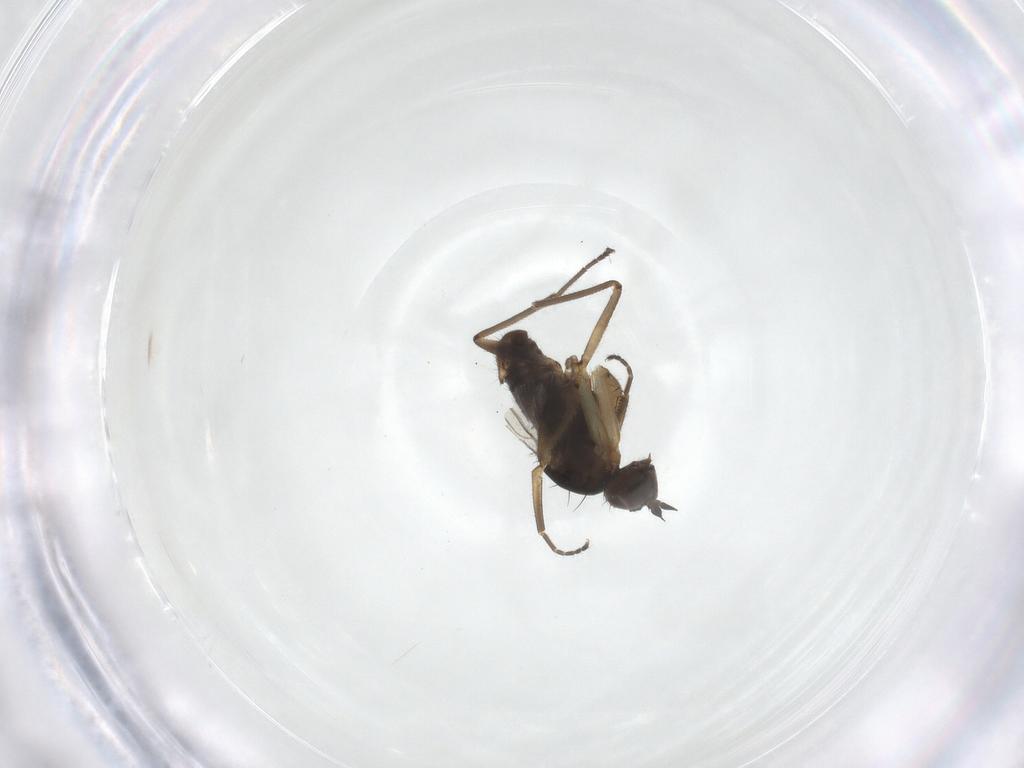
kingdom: Animalia
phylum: Arthropoda
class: Insecta
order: Diptera
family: Empididae
